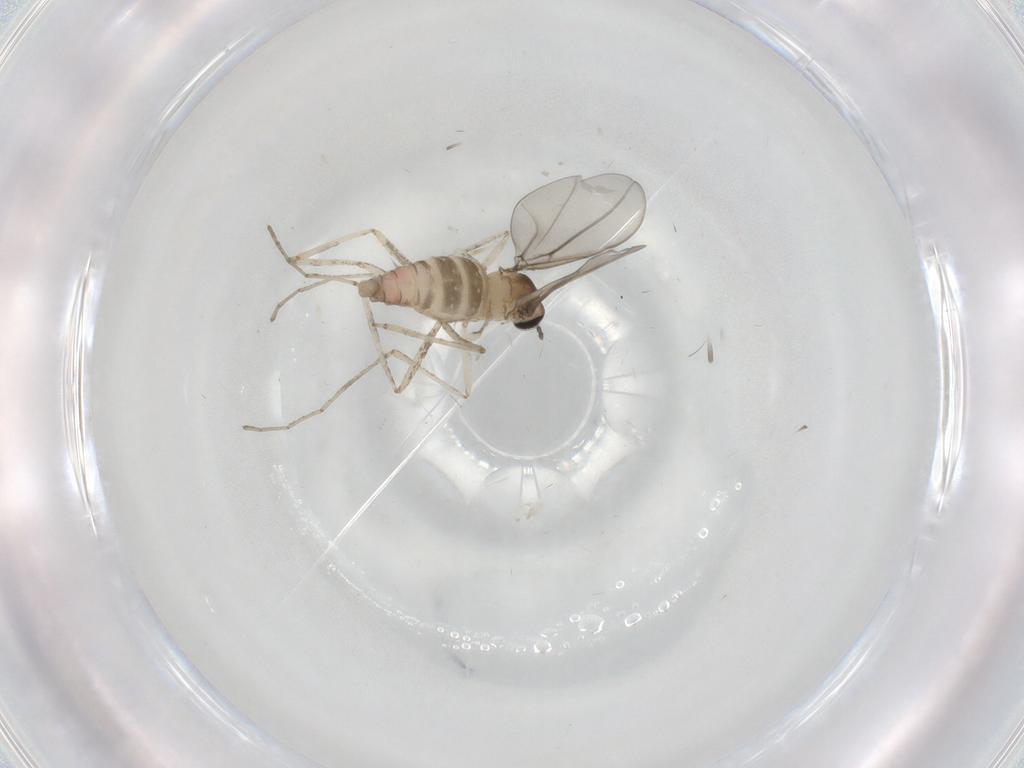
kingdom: Animalia
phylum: Arthropoda
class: Insecta
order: Diptera
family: Cecidomyiidae
